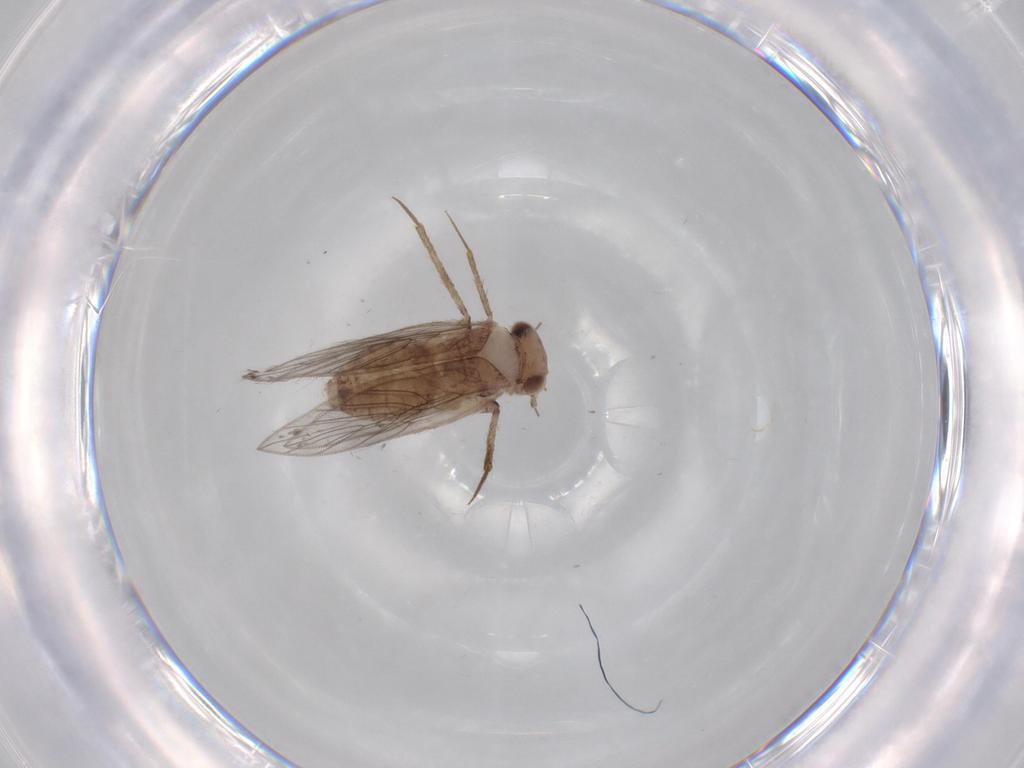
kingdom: Animalia
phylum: Arthropoda
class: Insecta
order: Psocodea
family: Lepidopsocidae
